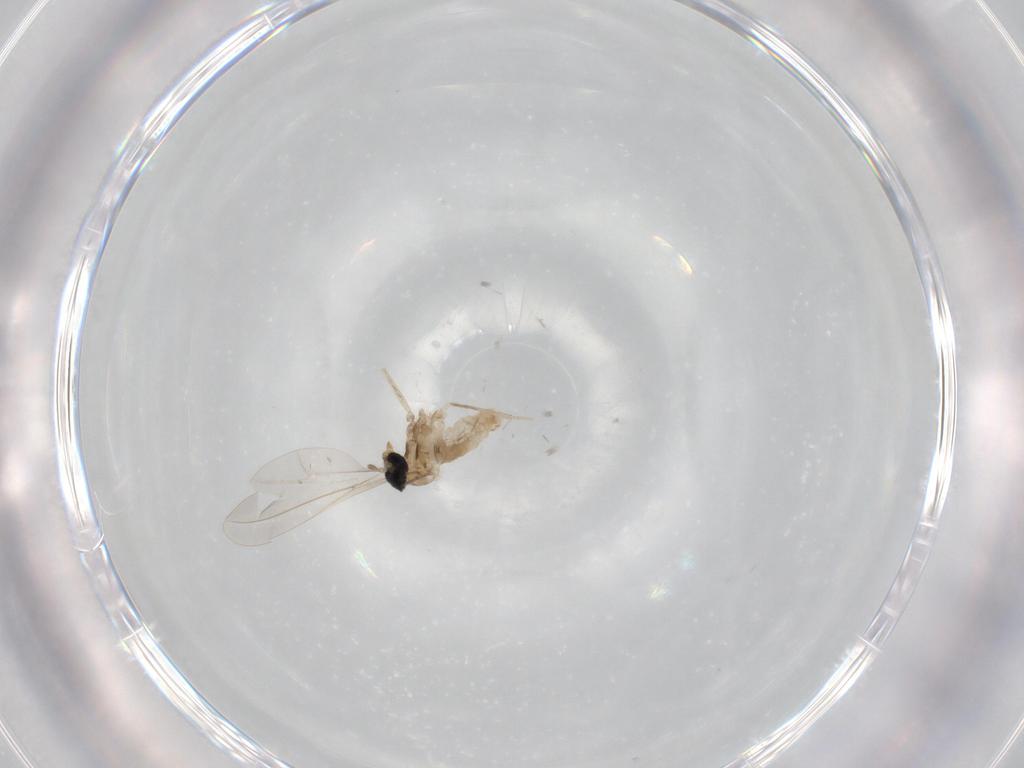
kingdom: Animalia
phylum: Arthropoda
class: Insecta
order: Diptera
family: Cecidomyiidae
